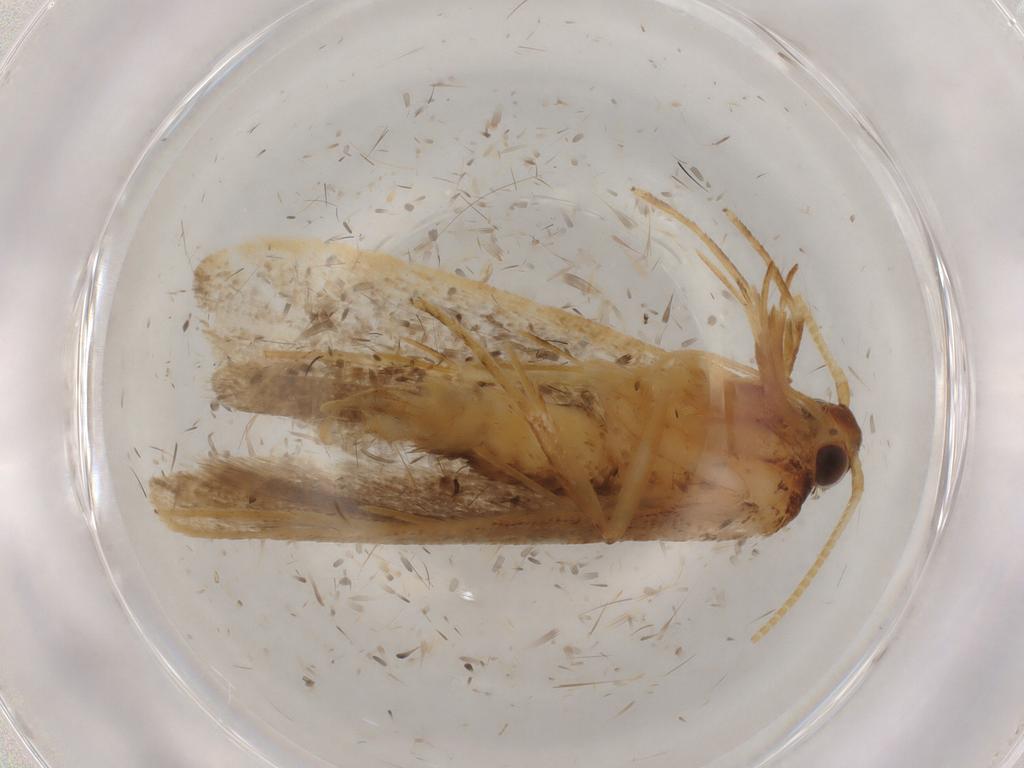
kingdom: Animalia
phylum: Arthropoda
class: Insecta
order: Lepidoptera
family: Lecithoceridae
